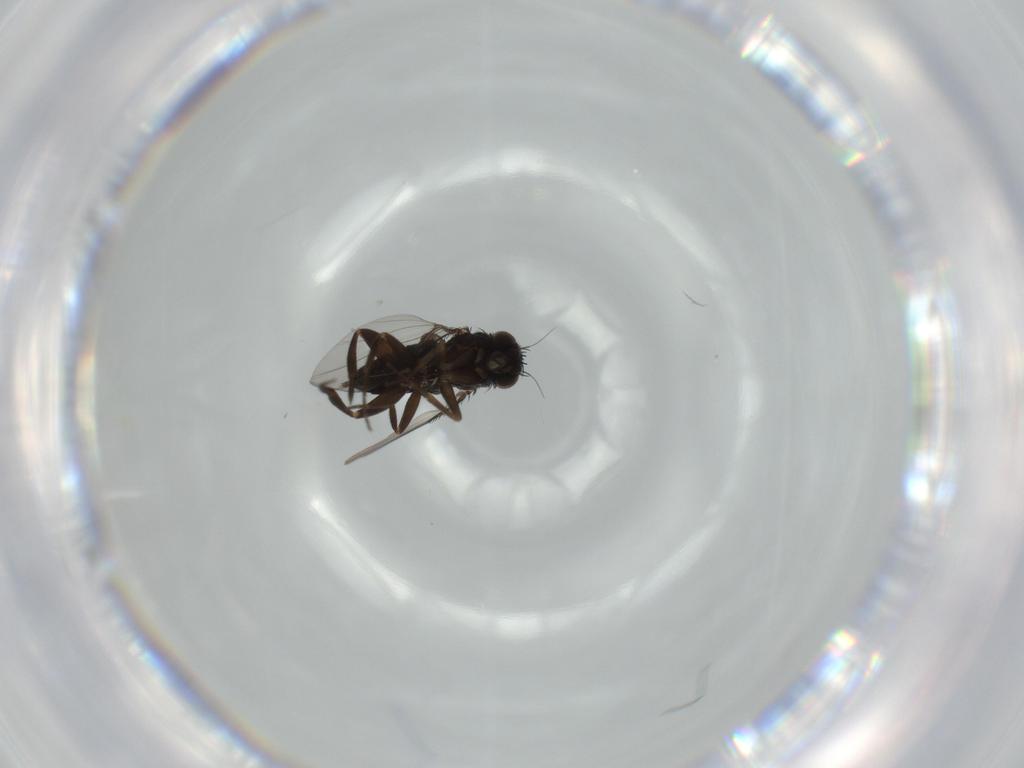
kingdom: Animalia
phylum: Arthropoda
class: Insecta
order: Diptera
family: Phoridae
